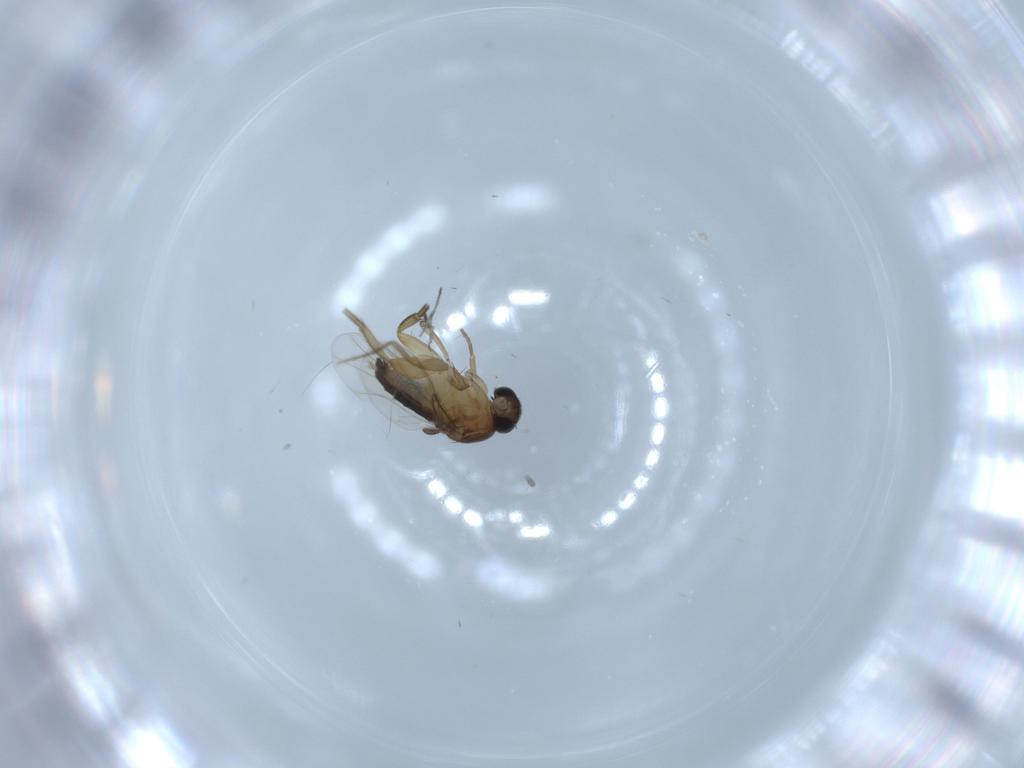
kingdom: Animalia
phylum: Arthropoda
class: Insecta
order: Diptera
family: Phoridae
